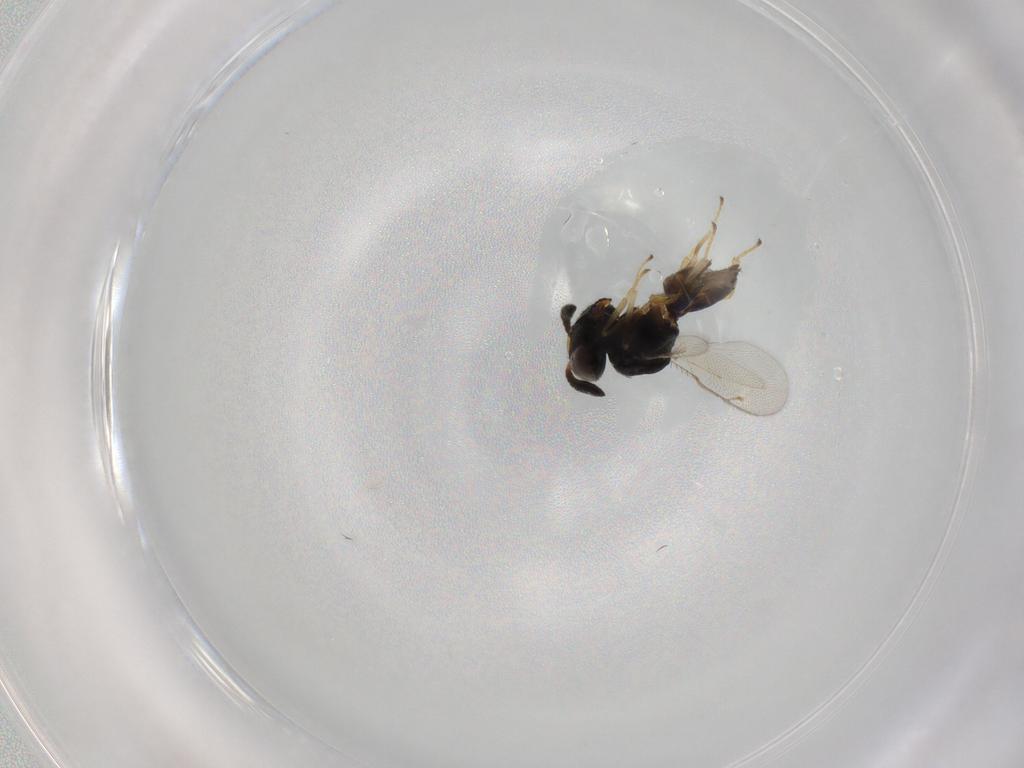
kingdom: Animalia
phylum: Arthropoda
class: Insecta
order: Hymenoptera
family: Pteromalidae
